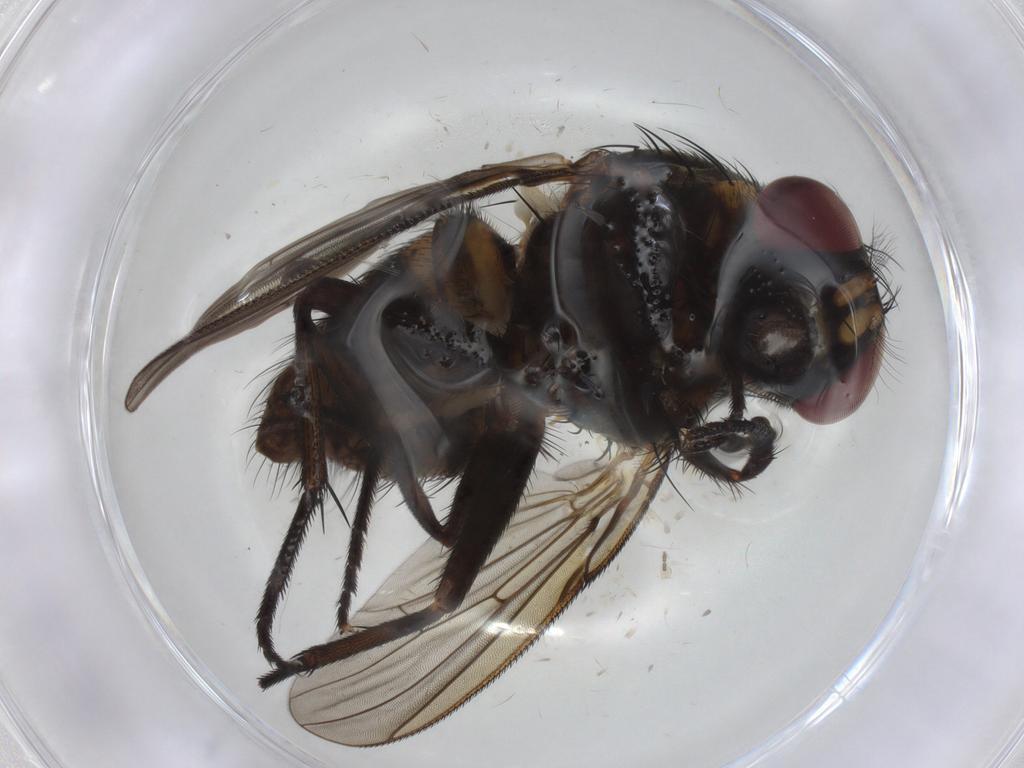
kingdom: Animalia
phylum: Arthropoda
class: Insecta
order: Diptera
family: Muscidae
